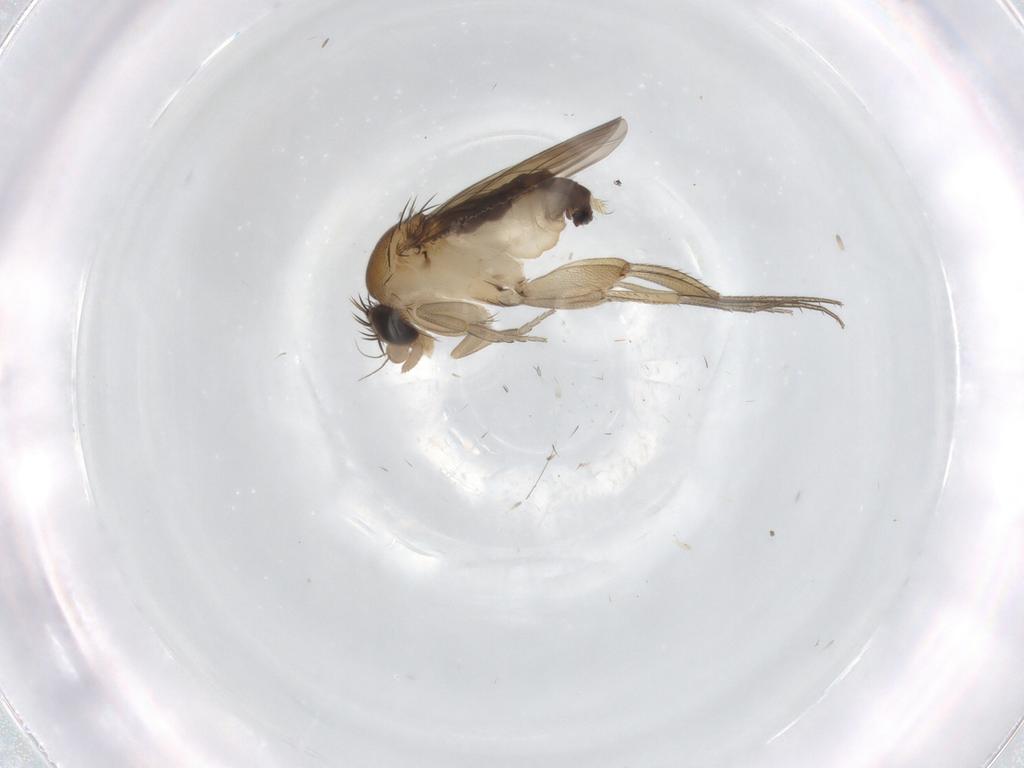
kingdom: Animalia
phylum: Arthropoda
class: Insecta
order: Diptera
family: Phoridae
